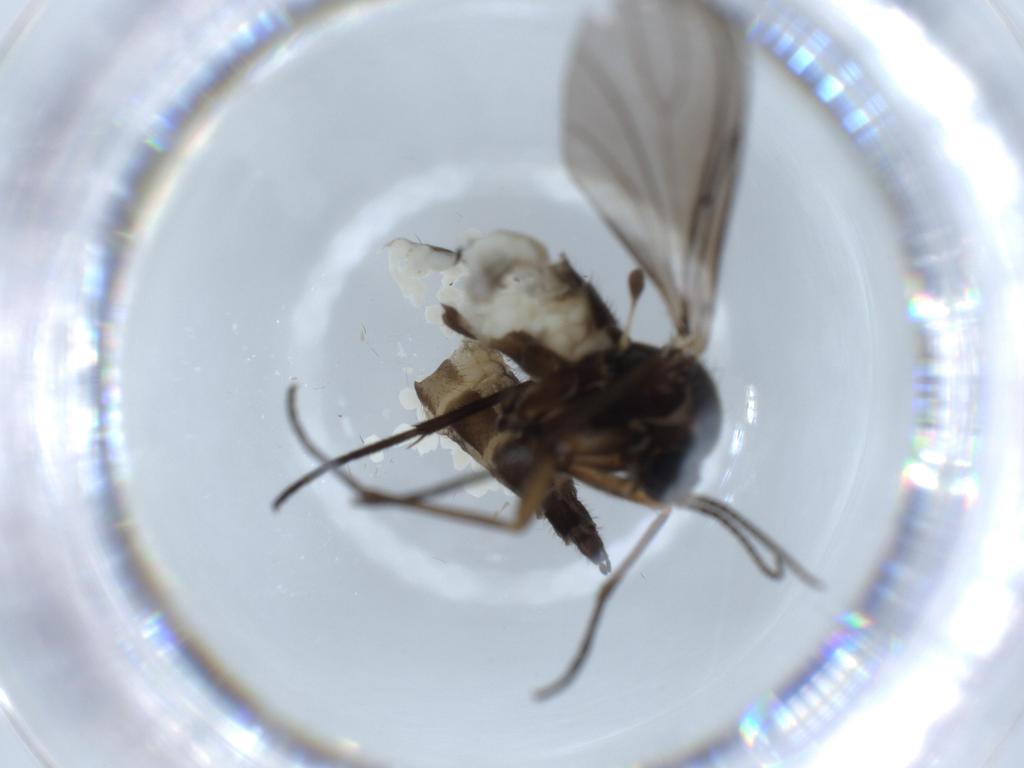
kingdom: Animalia
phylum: Arthropoda
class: Insecta
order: Diptera
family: Sciaridae
